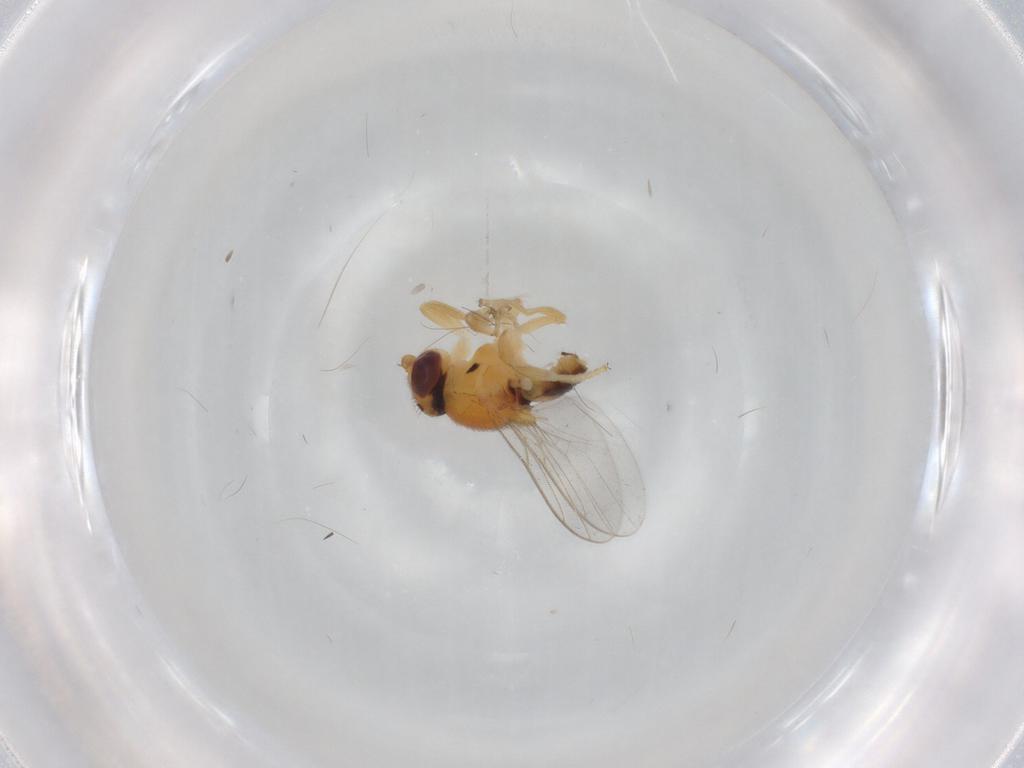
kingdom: Animalia
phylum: Arthropoda
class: Insecta
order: Diptera
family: Chloropidae
